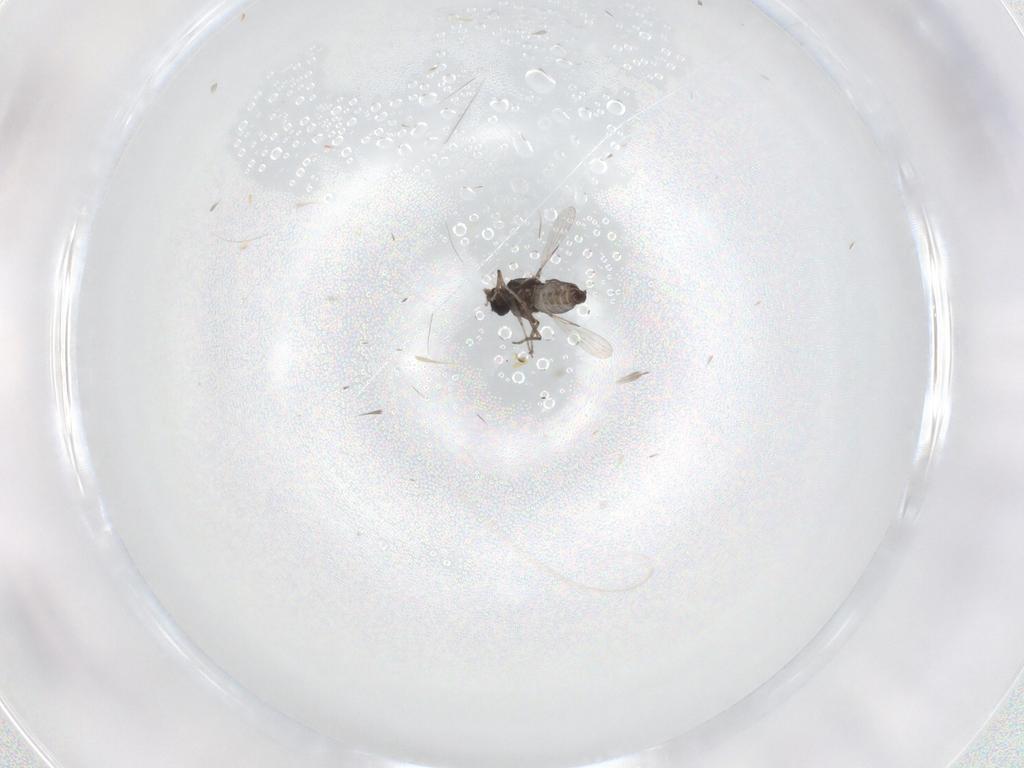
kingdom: Animalia
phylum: Arthropoda
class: Insecta
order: Diptera
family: Ceratopogonidae
